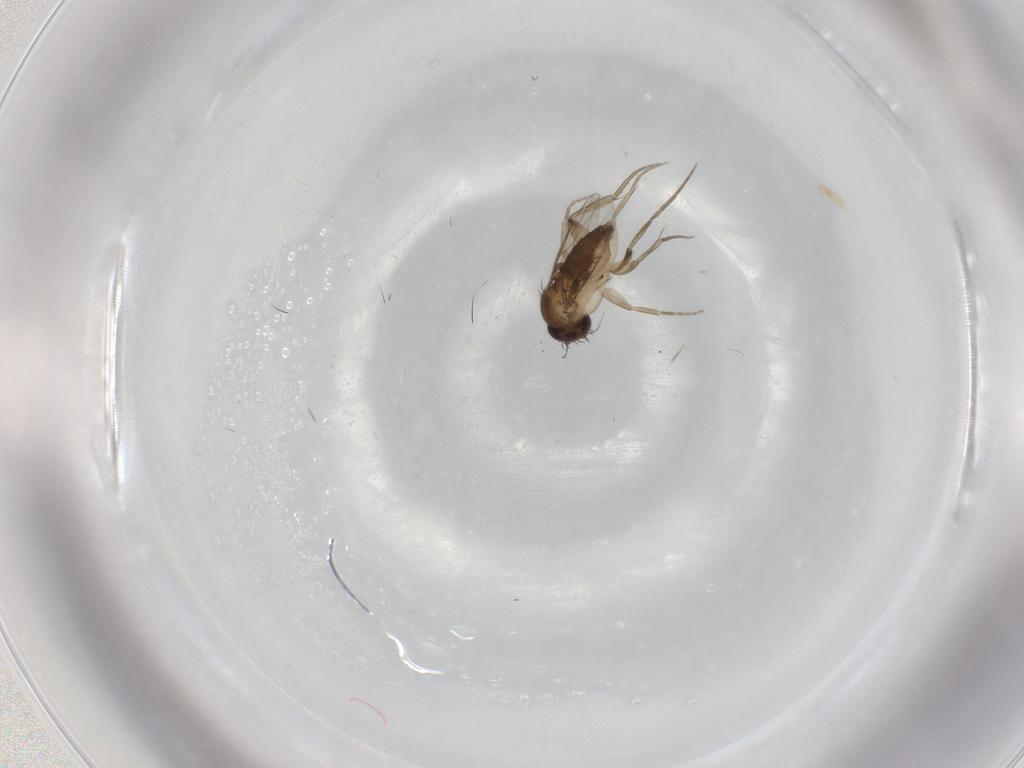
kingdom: Animalia
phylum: Arthropoda
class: Insecta
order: Diptera
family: Phoridae
